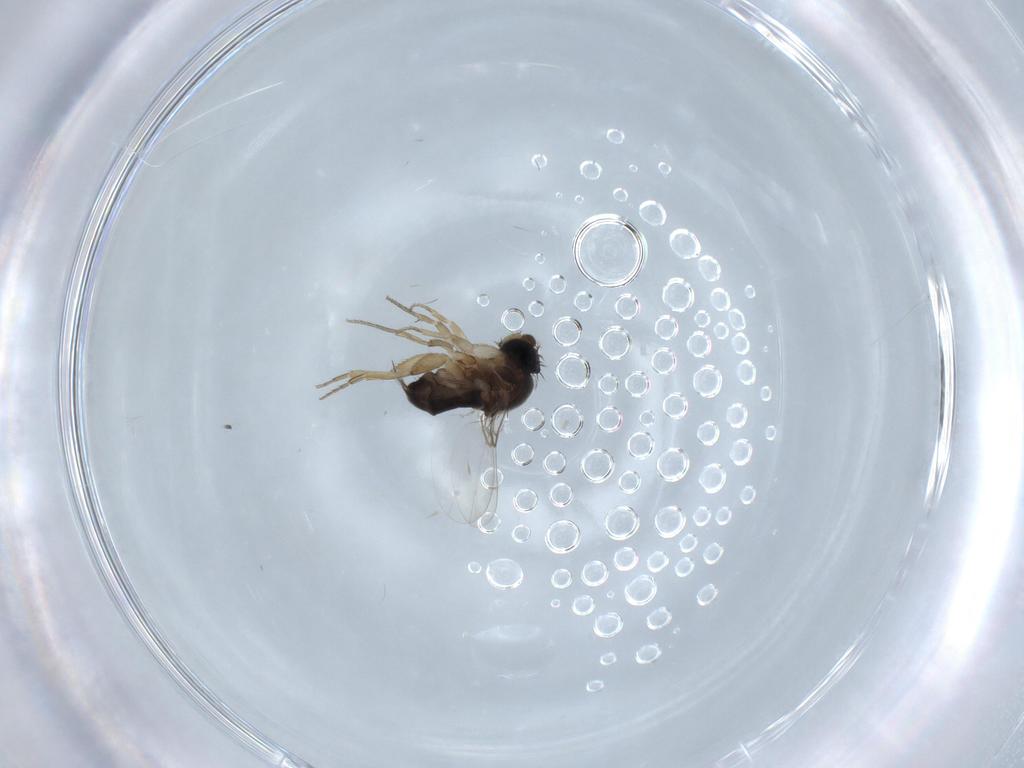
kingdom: Animalia
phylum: Arthropoda
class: Insecta
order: Diptera
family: Phoridae
